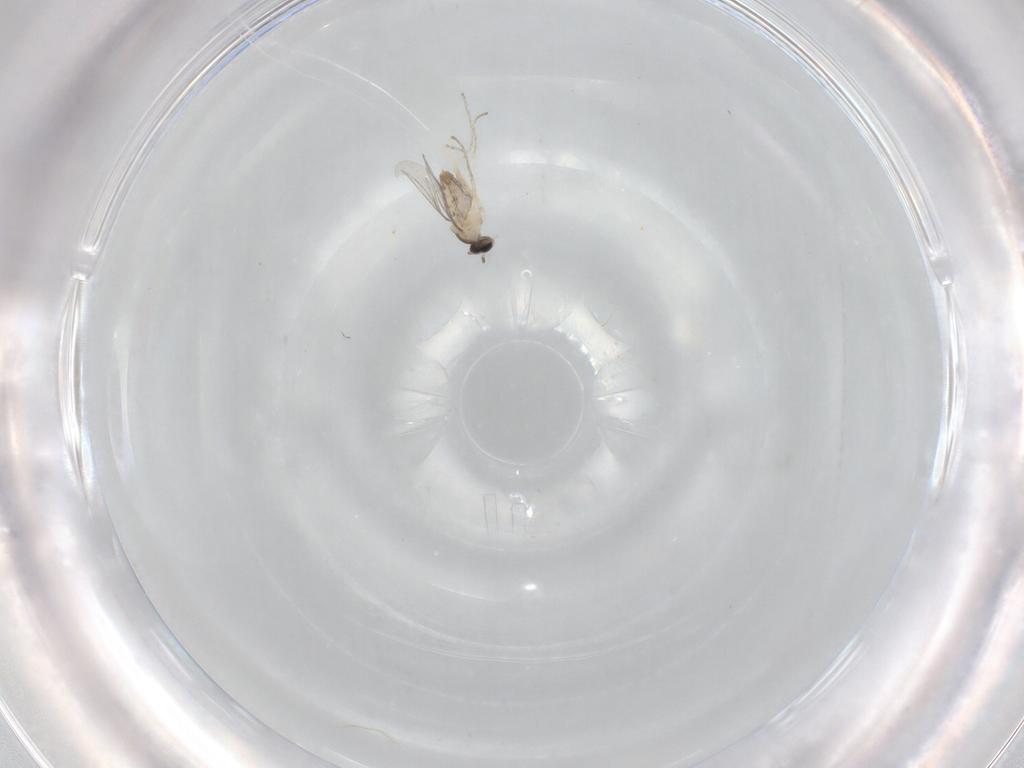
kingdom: Animalia
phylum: Arthropoda
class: Insecta
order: Diptera
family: Cecidomyiidae
